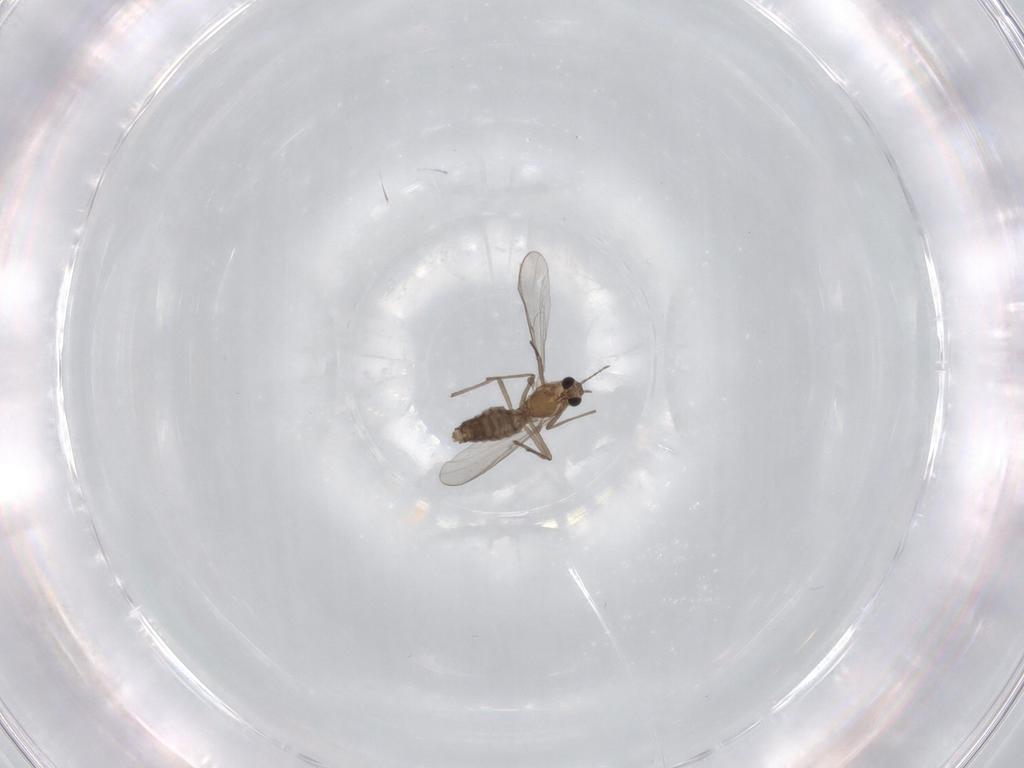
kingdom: Animalia
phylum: Arthropoda
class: Insecta
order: Diptera
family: Chironomidae
